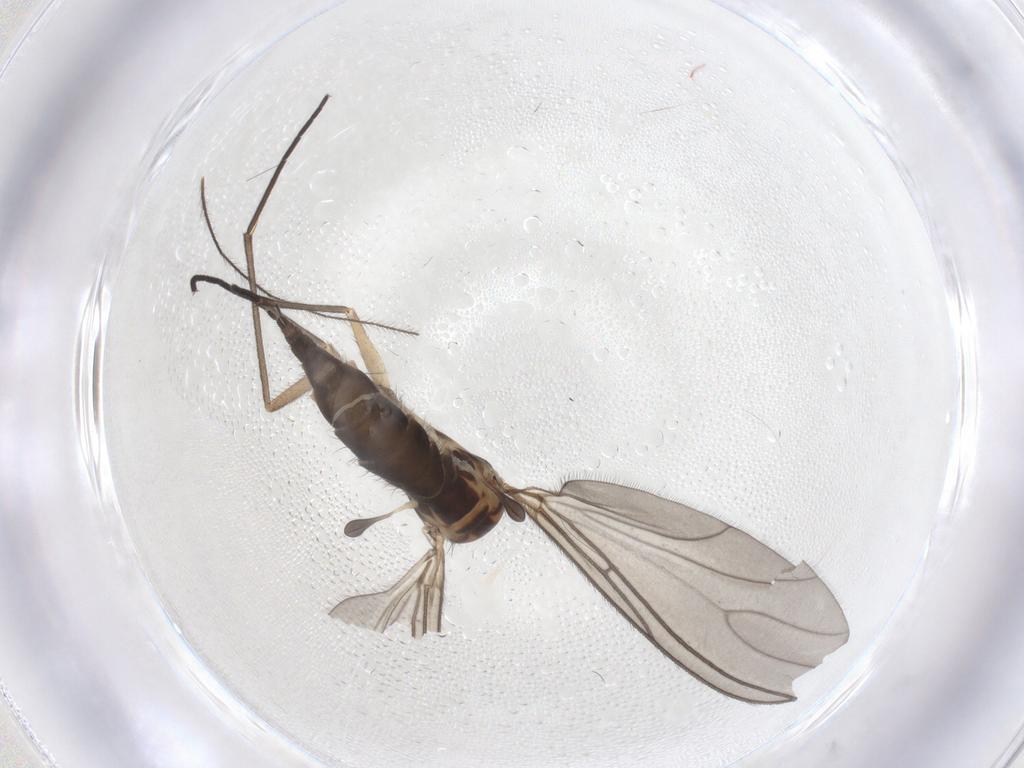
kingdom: Animalia
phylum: Arthropoda
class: Insecta
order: Diptera
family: Sciaridae
